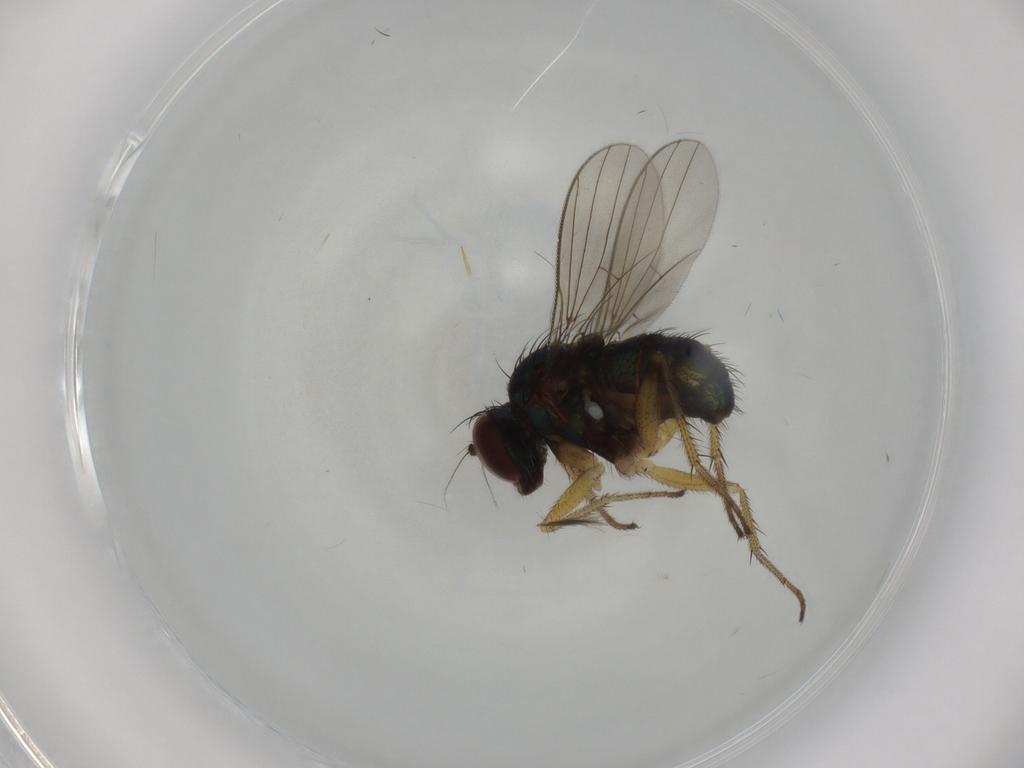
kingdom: Animalia
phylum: Arthropoda
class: Insecta
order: Diptera
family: Dolichopodidae
